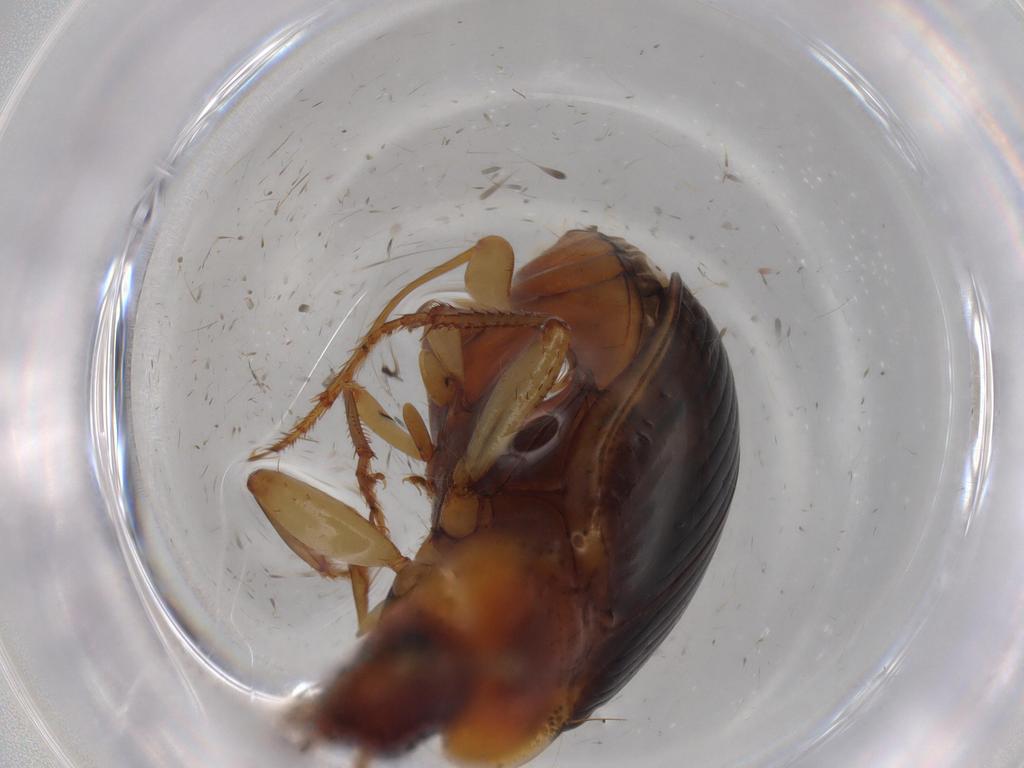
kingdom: Animalia
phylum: Arthropoda
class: Insecta
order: Coleoptera
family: Carabidae
